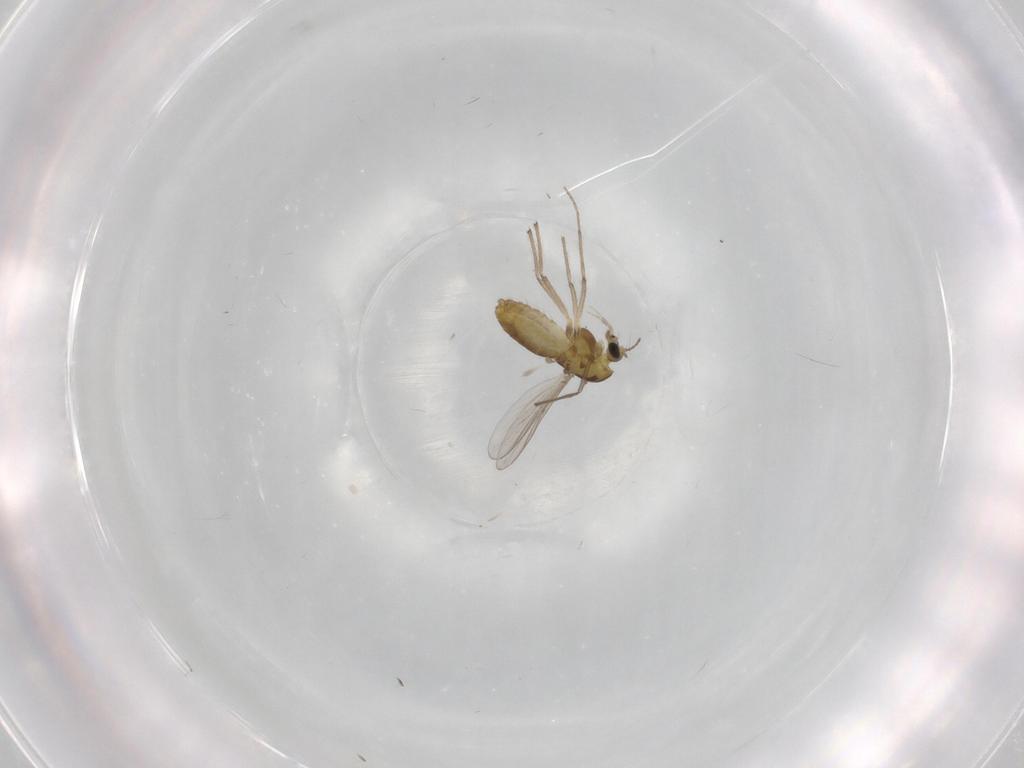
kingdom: Animalia
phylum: Arthropoda
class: Insecta
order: Diptera
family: Chironomidae
